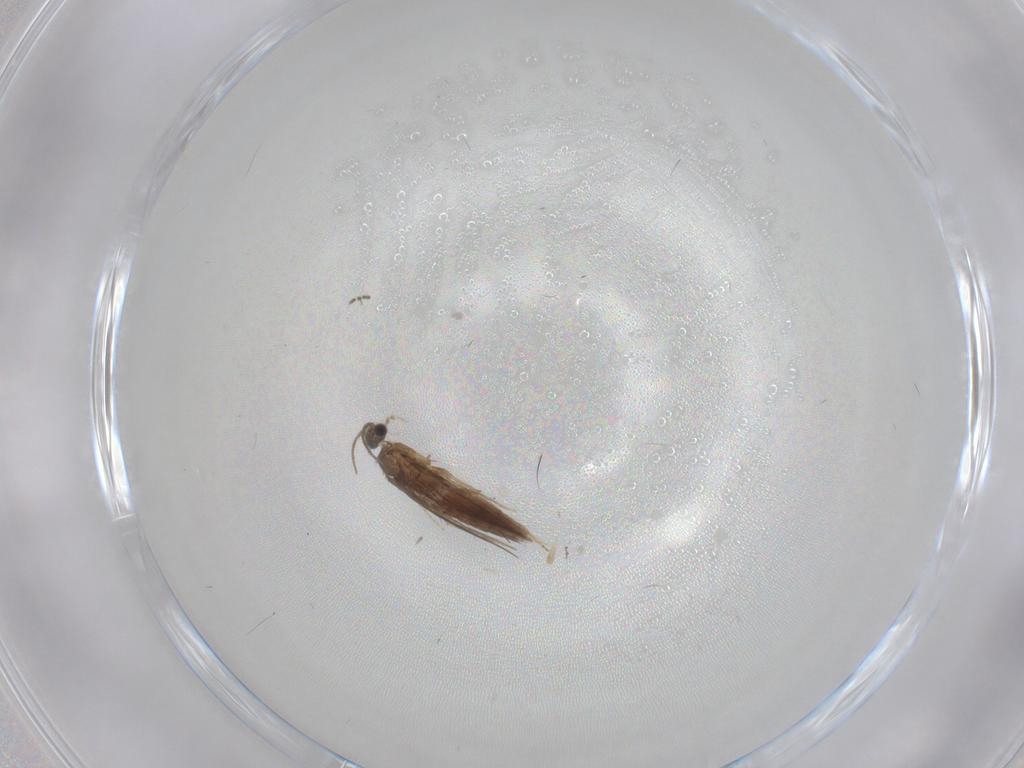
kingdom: Animalia
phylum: Arthropoda
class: Insecta
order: Trichoptera
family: Hydroptilidae
